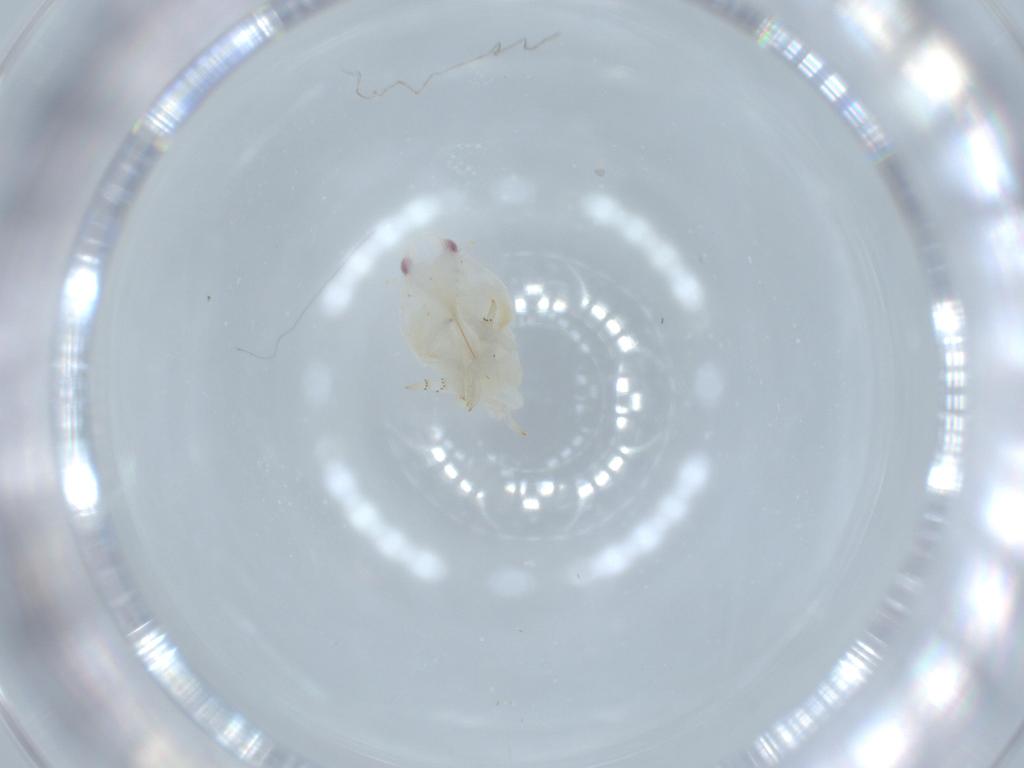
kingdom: Animalia
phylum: Arthropoda
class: Insecta
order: Hemiptera
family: Flatidae
